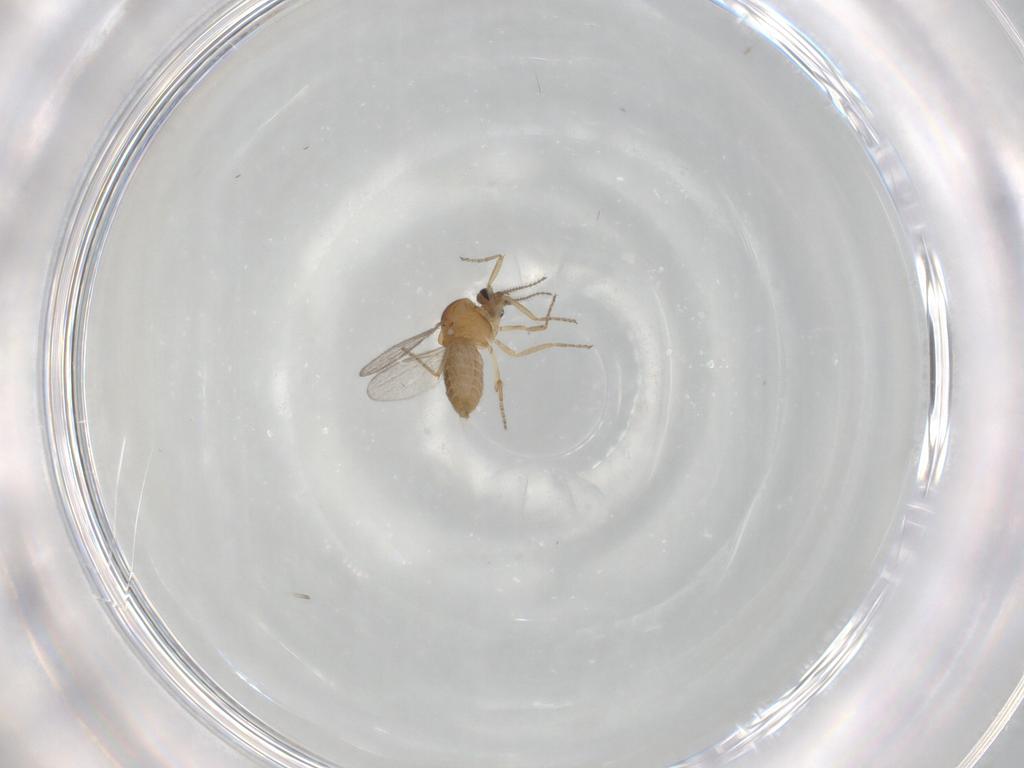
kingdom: Animalia
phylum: Arthropoda
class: Insecta
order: Diptera
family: Ceratopogonidae
